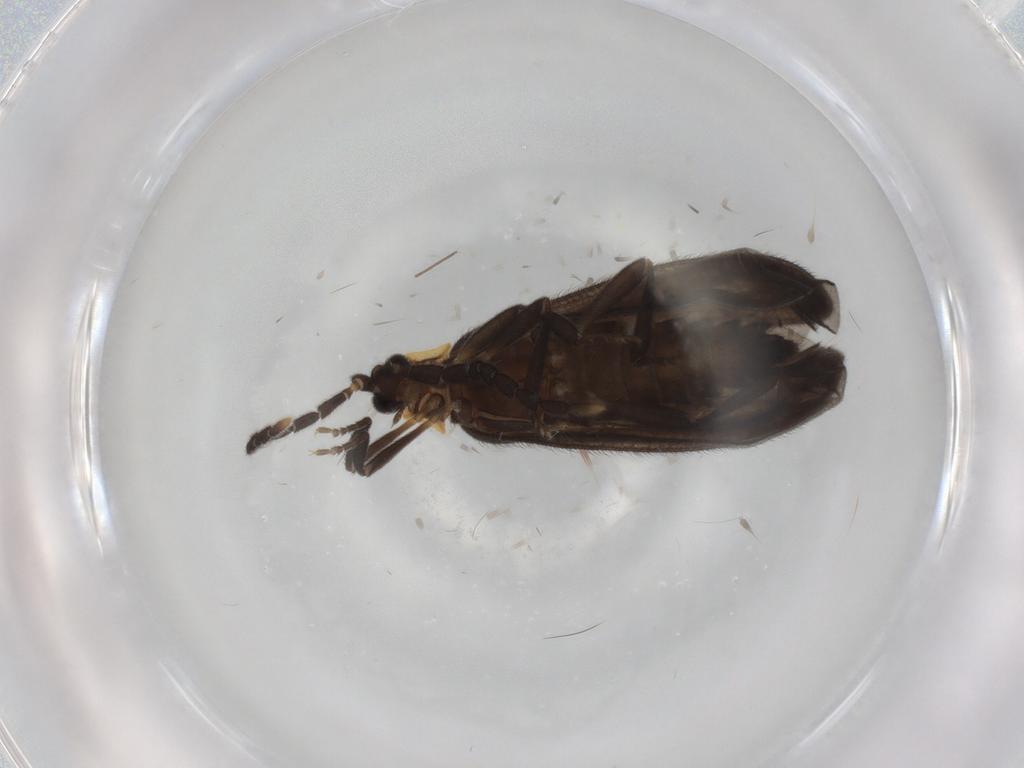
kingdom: Animalia
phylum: Arthropoda
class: Insecta
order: Coleoptera
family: Lycidae
